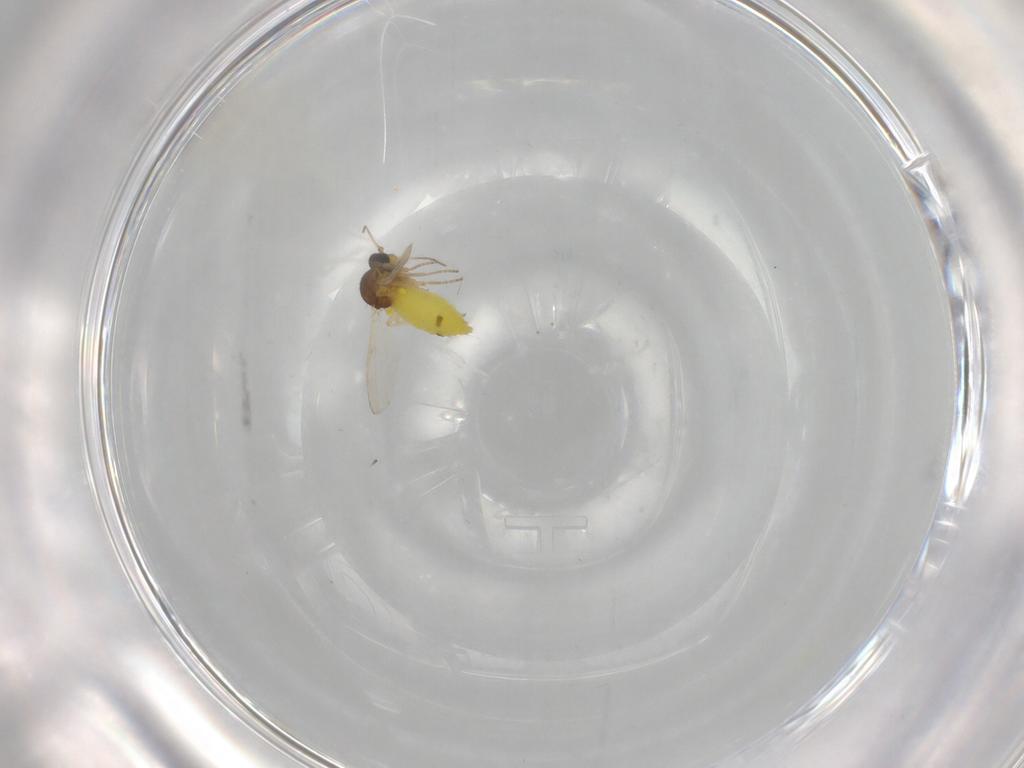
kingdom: Animalia
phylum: Arthropoda
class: Insecta
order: Diptera
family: Ceratopogonidae
